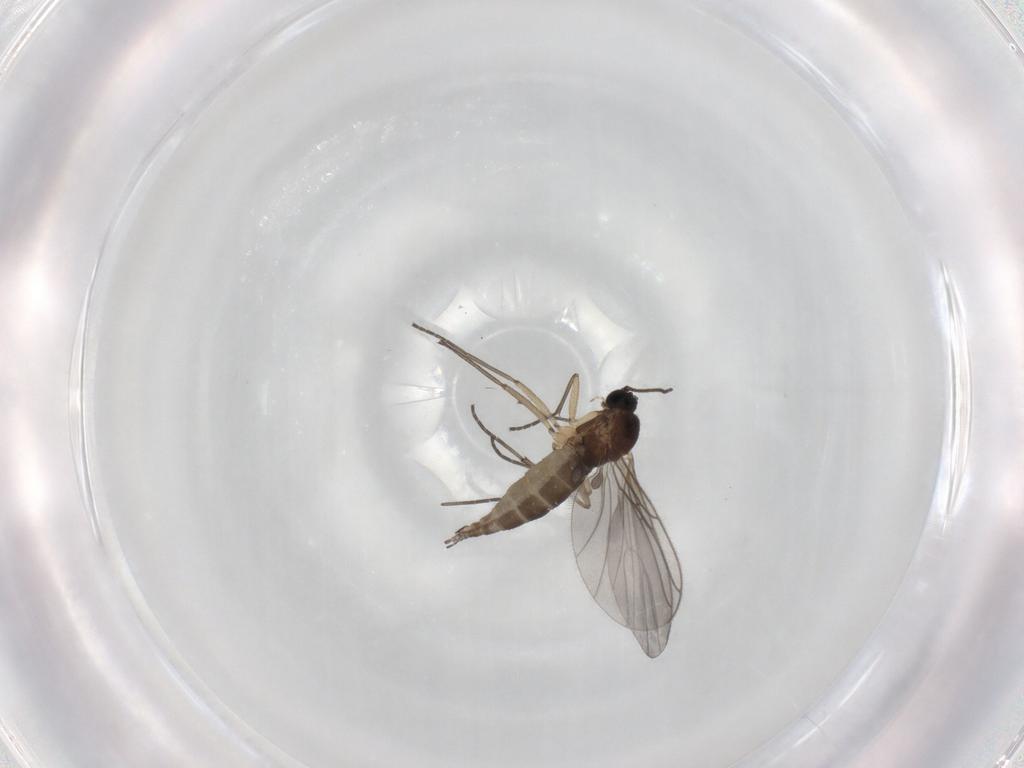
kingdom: Animalia
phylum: Arthropoda
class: Insecta
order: Diptera
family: Sciaridae
